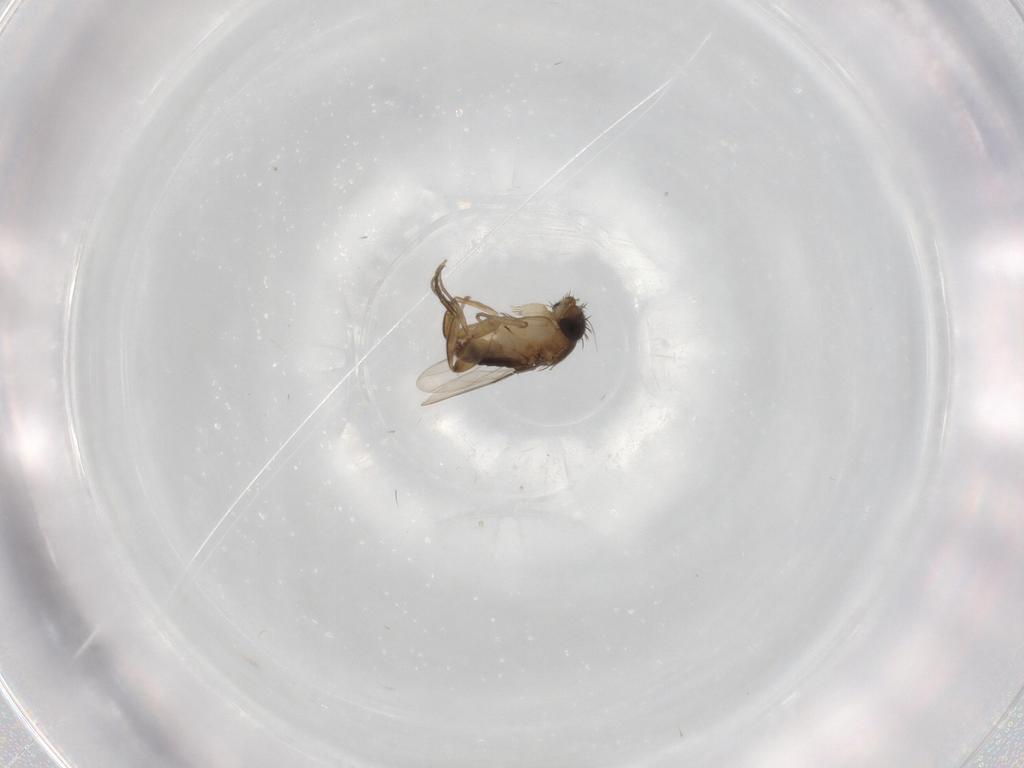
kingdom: Animalia
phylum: Arthropoda
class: Insecta
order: Diptera
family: Phoridae
